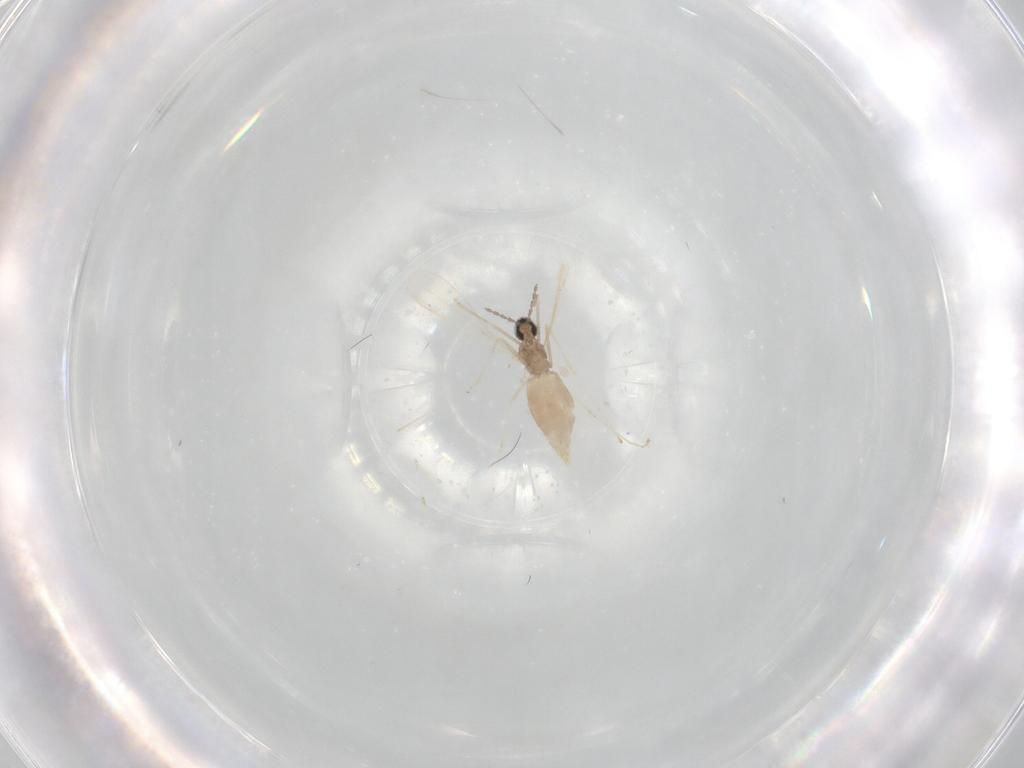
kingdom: Animalia
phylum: Arthropoda
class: Insecta
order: Diptera
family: Cecidomyiidae
